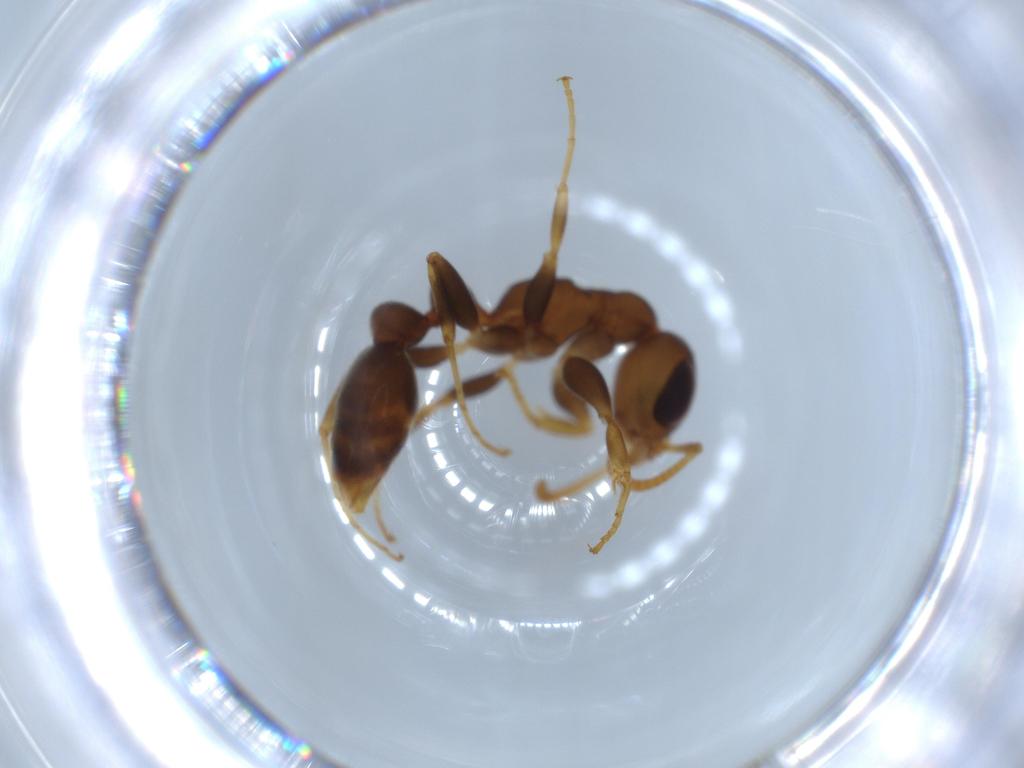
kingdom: Animalia
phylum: Arthropoda
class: Insecta
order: Hymenoptera
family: Formicidae
